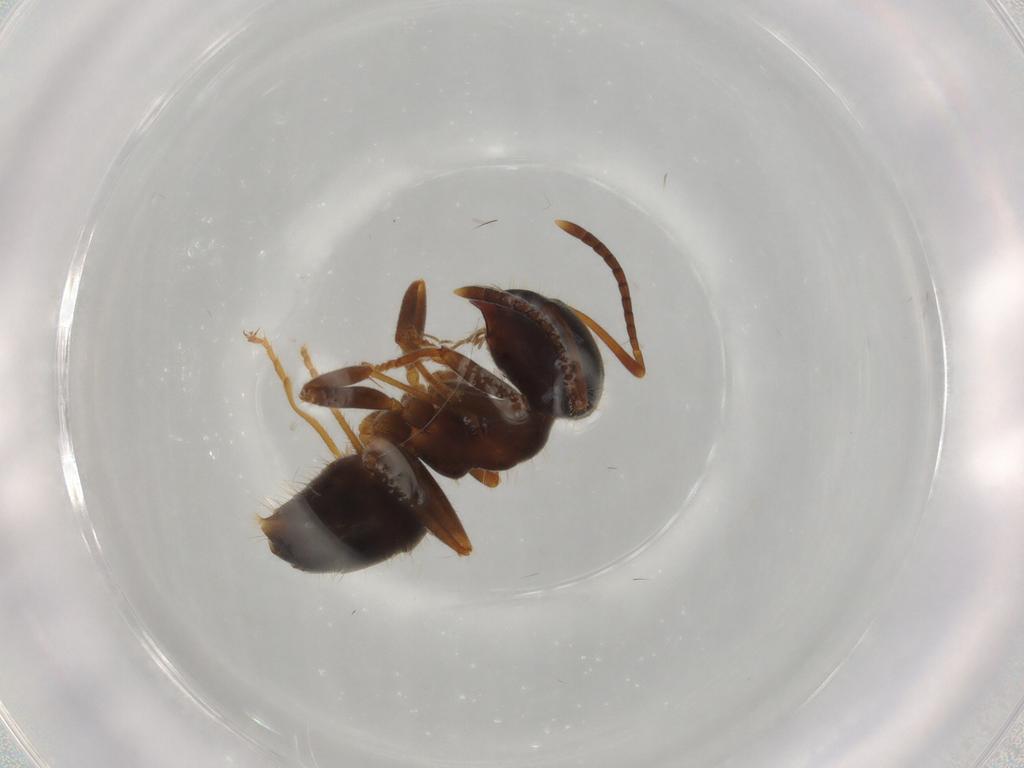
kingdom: Animalia
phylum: Arthropoda
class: Insecta
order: Hymenoptera
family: Formicidae
